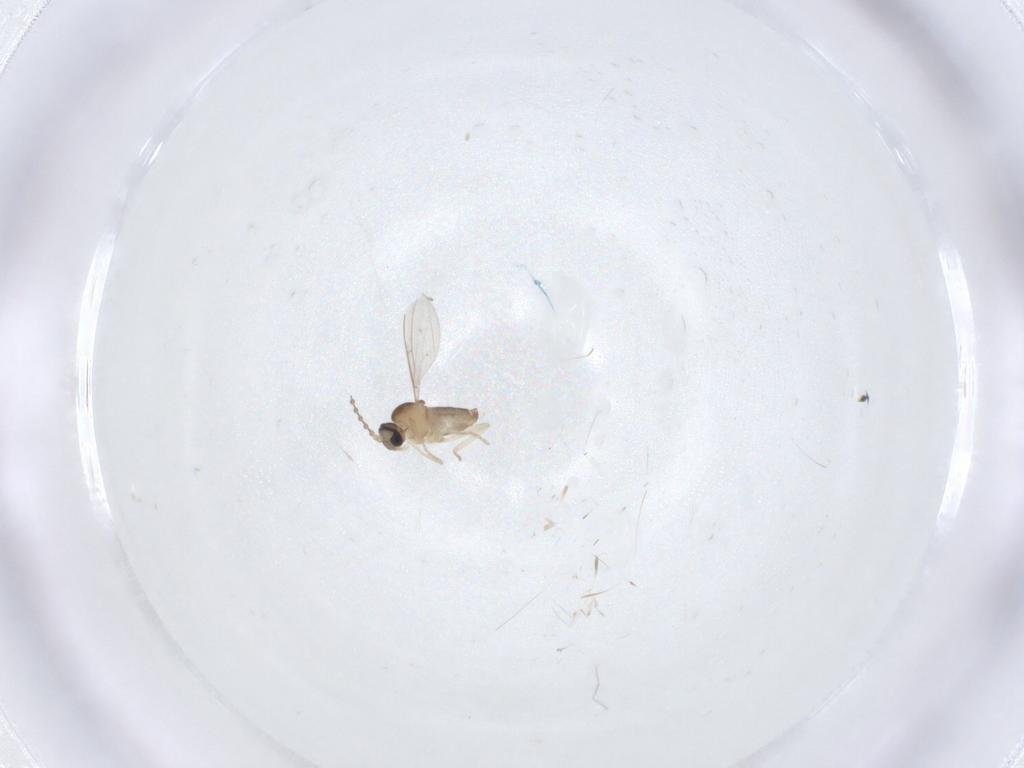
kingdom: Animalia
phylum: Arthropoda
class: Insecta
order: Diptera
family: Cecidomyiidae
